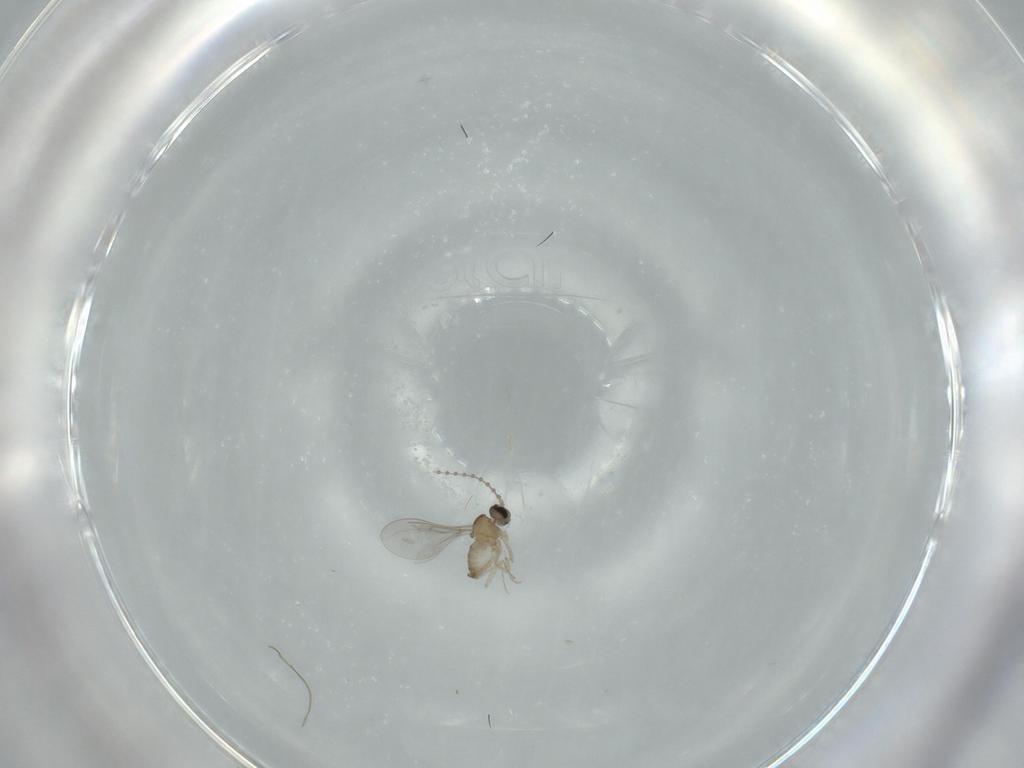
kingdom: Animalia
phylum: Arthropoda
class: Insecta
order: Diptera
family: Cecidomyiidae
